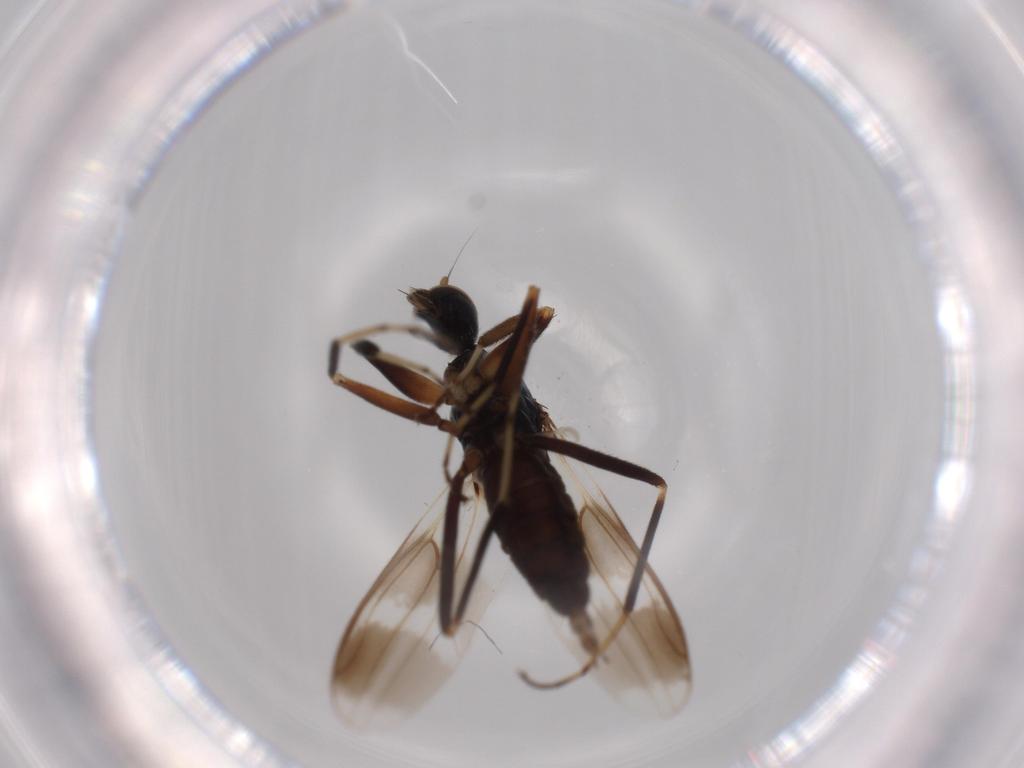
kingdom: Animalia
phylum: Arthropoda
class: Insecta
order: Diptera
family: Hybotidae
